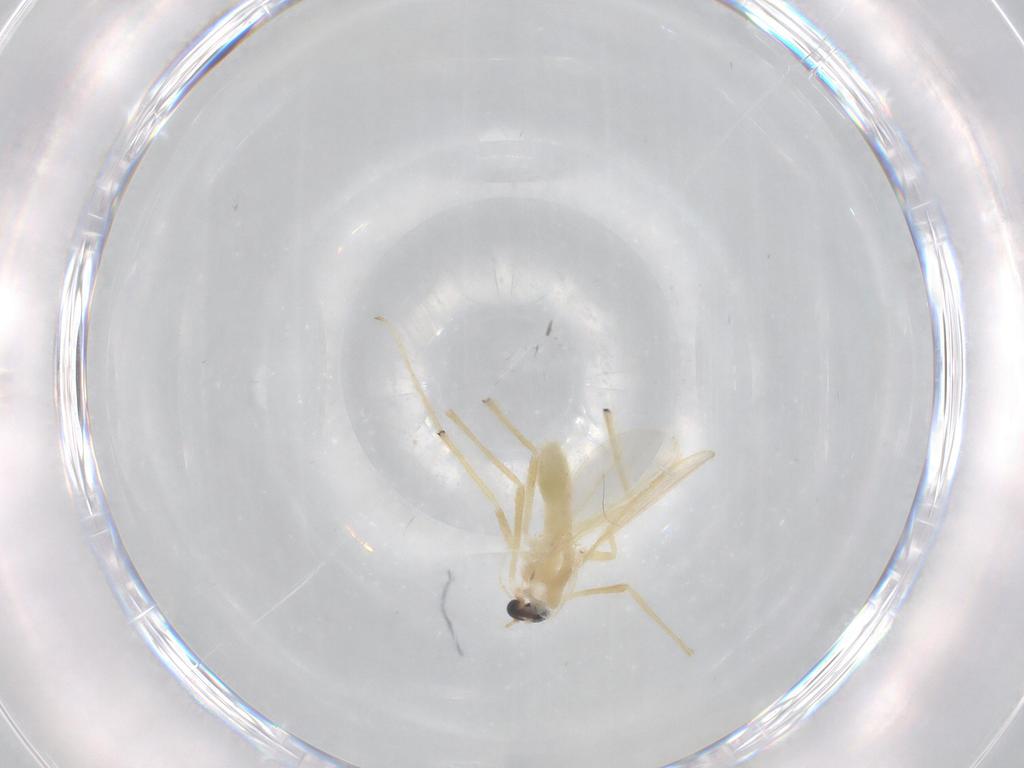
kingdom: Animalia
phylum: Arthropoda
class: Insecta
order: Diptera
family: Chironomidae
